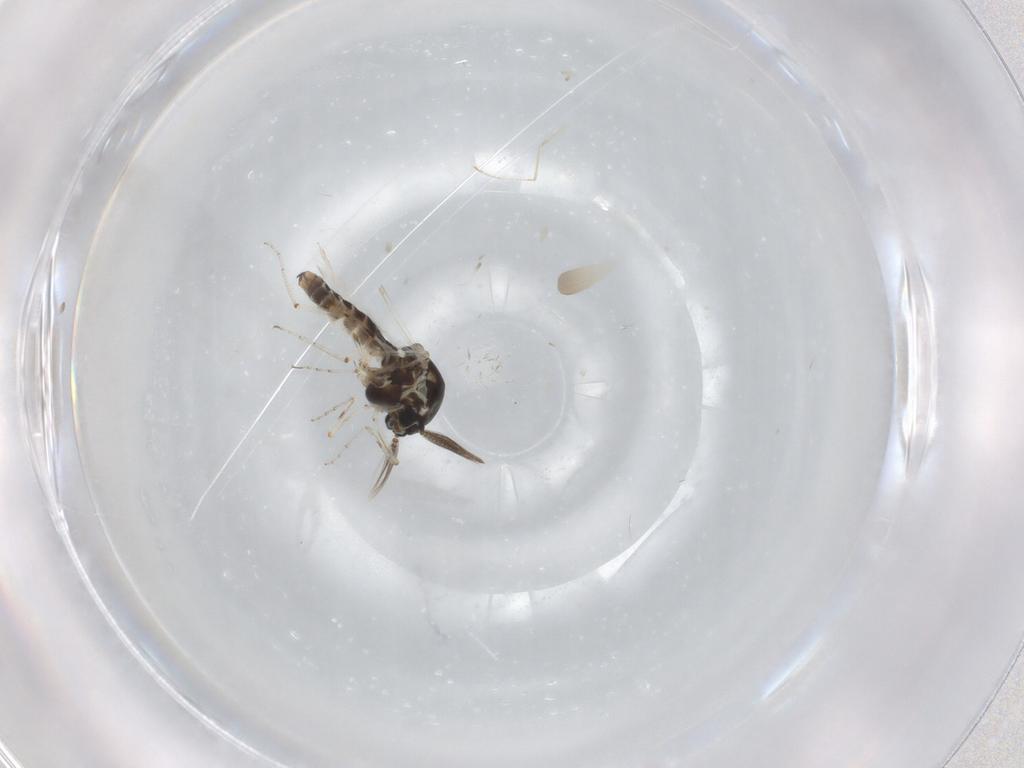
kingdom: Animalia
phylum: Arthropoda
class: Insecta
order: Diptera
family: Ceratopogonidae
